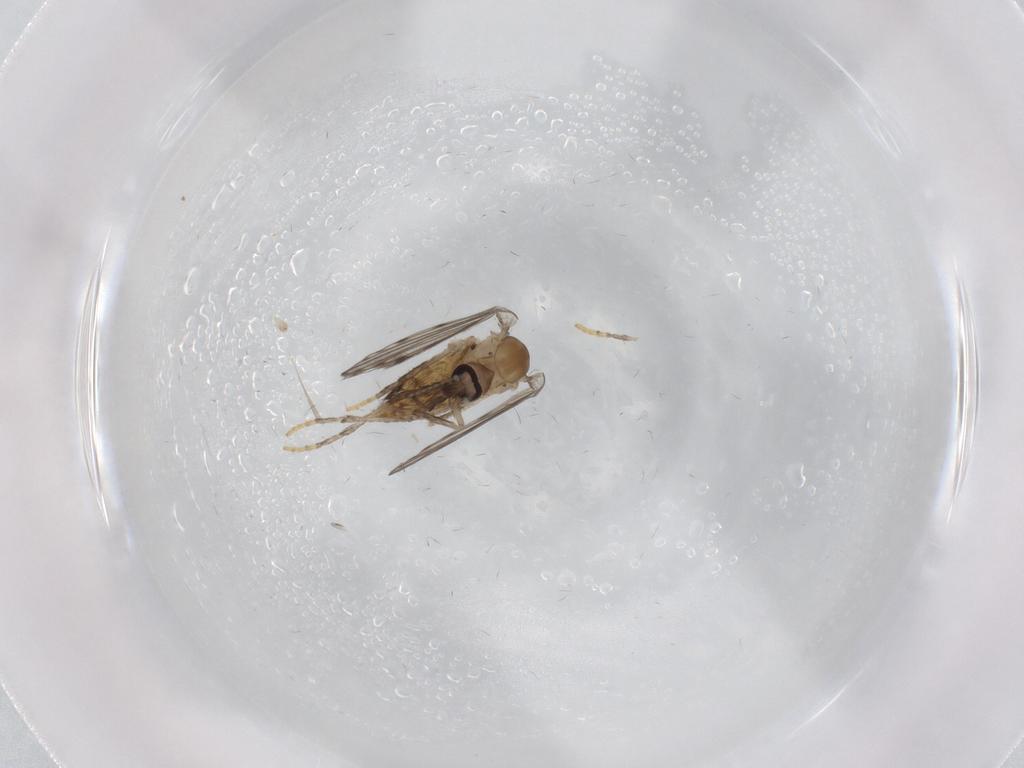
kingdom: Animalia
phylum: Arthropoda
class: Insecta
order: Diptera
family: Psychodidae
